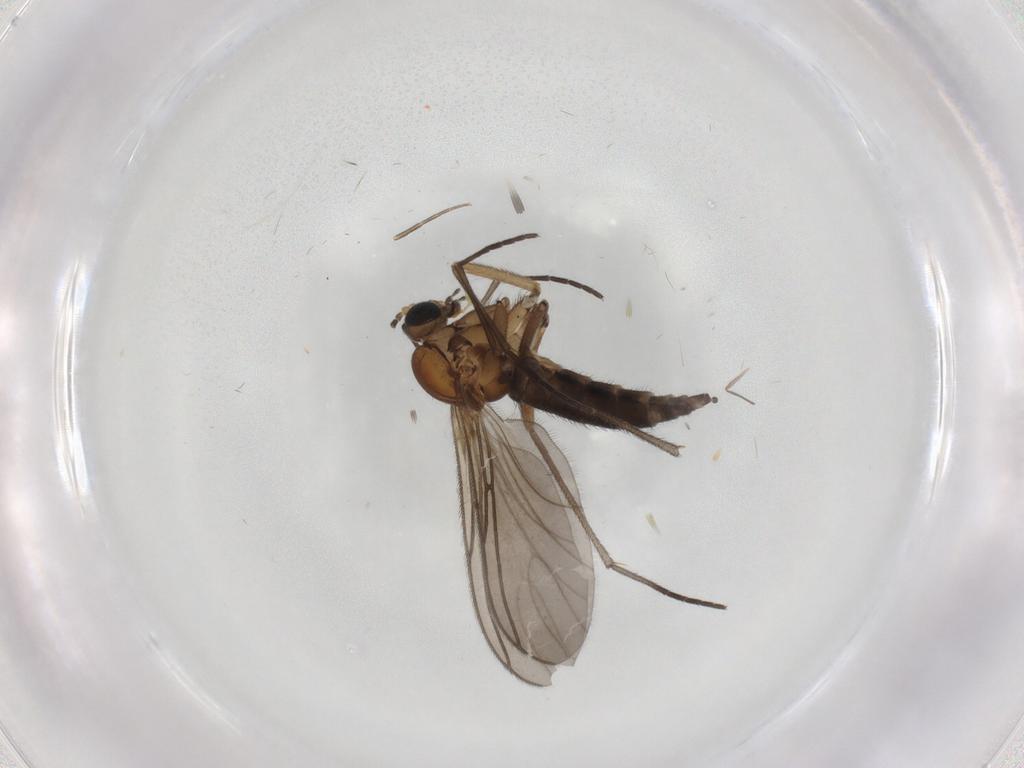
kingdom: Animalia
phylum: Arthropoda
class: Insecta
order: Diptera
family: Sciaridae
